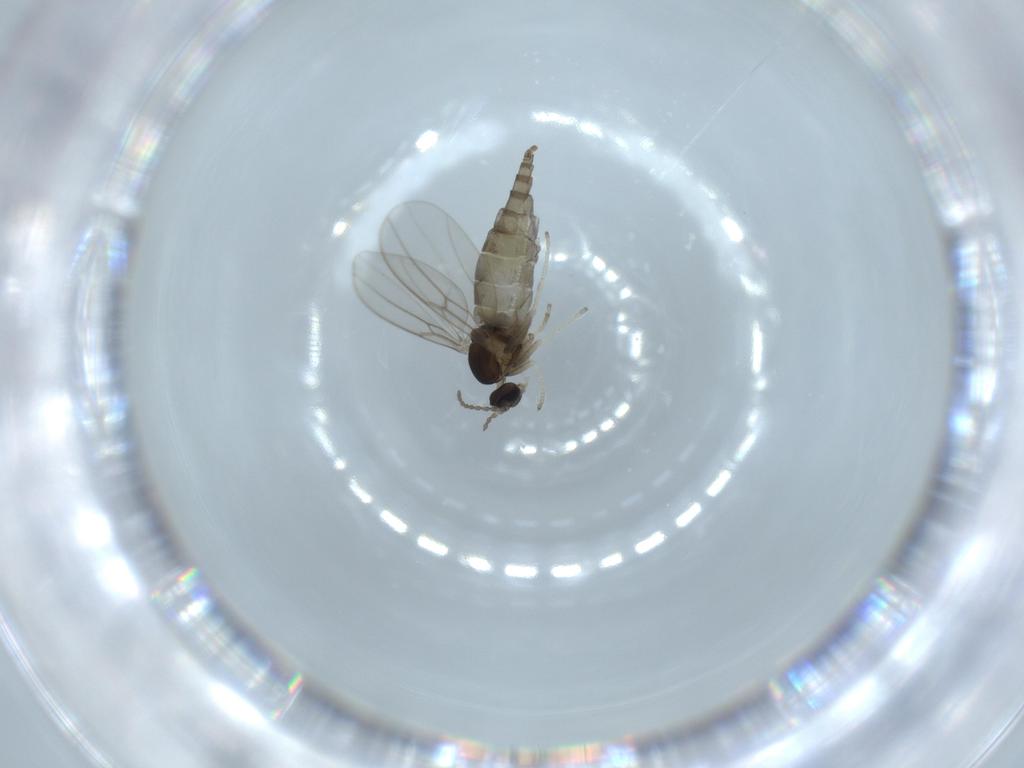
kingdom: Animalia
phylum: Arthropoda
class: Insecta
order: Diptera
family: Cecidomyiidae
